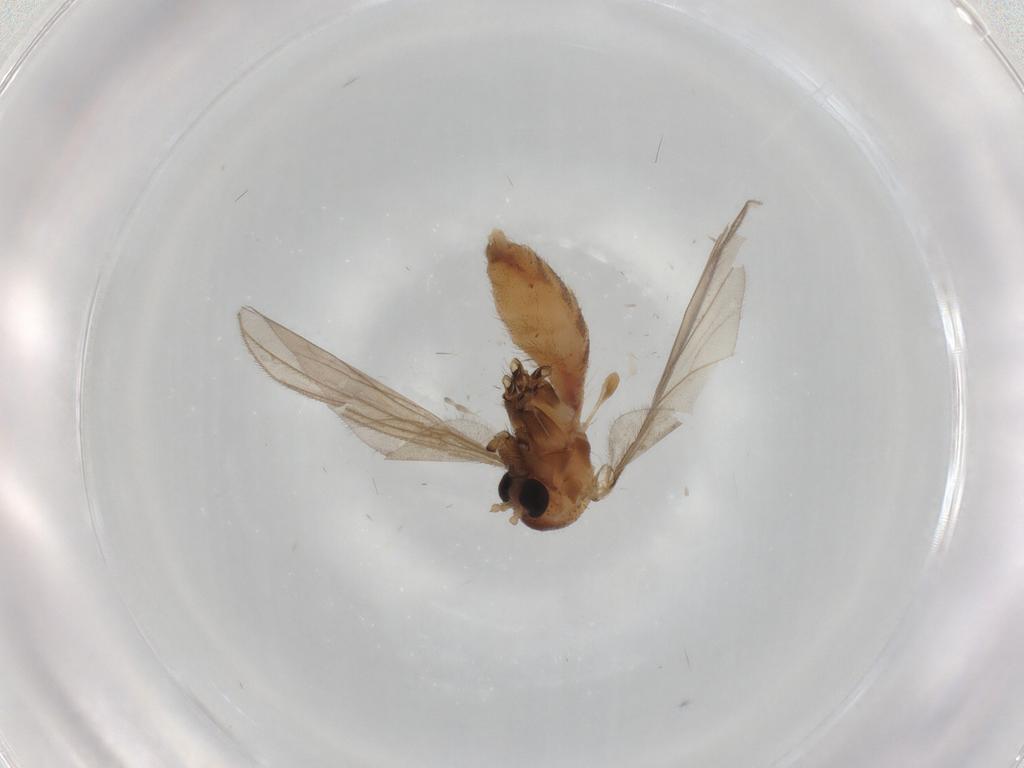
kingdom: Animalia
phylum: Arthropoda
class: Insecta
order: Diptera
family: Mycetophilidae
